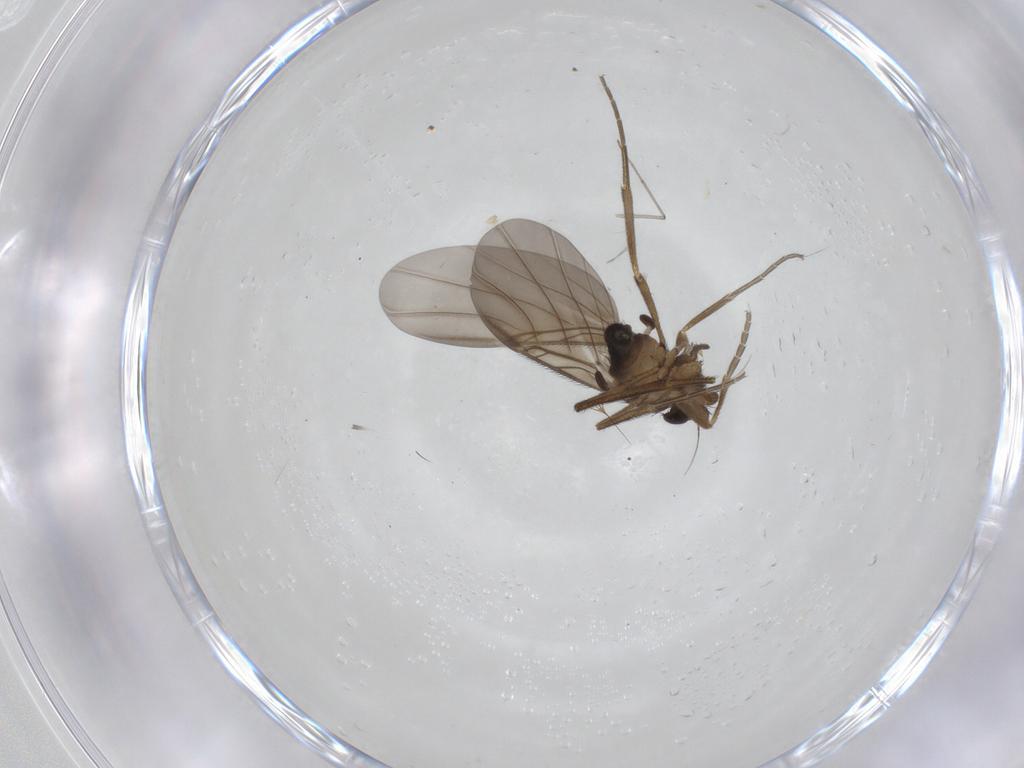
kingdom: Animalia
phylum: Arthropoda
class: Insecta
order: Diptera
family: Phoridae
